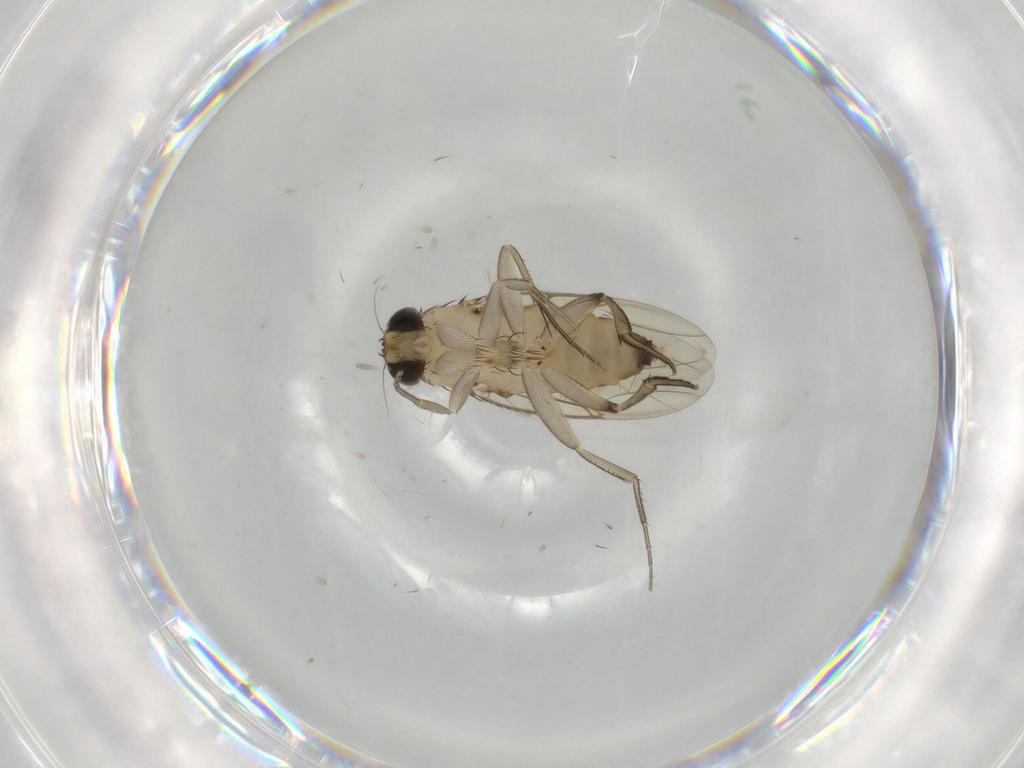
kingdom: Animalia
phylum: Arthropoda
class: Insecta
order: Diptera
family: Phoridae
